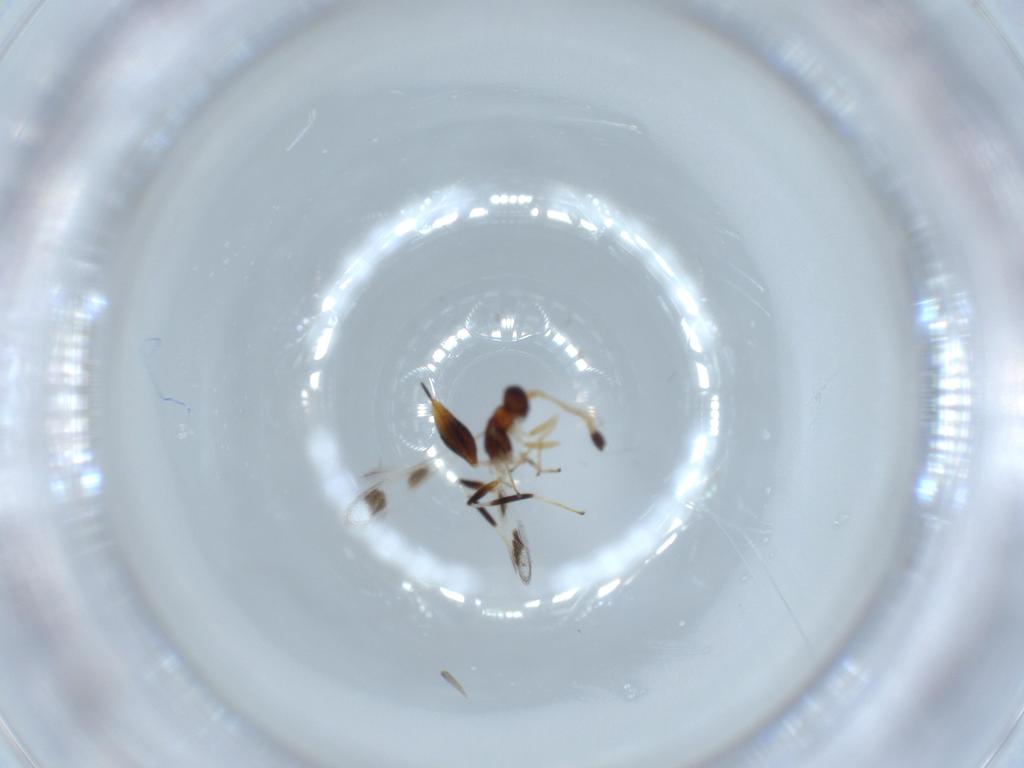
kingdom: Animalia
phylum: Arthropoda
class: Insecta
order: Hymenoptera
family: Mymaridae
